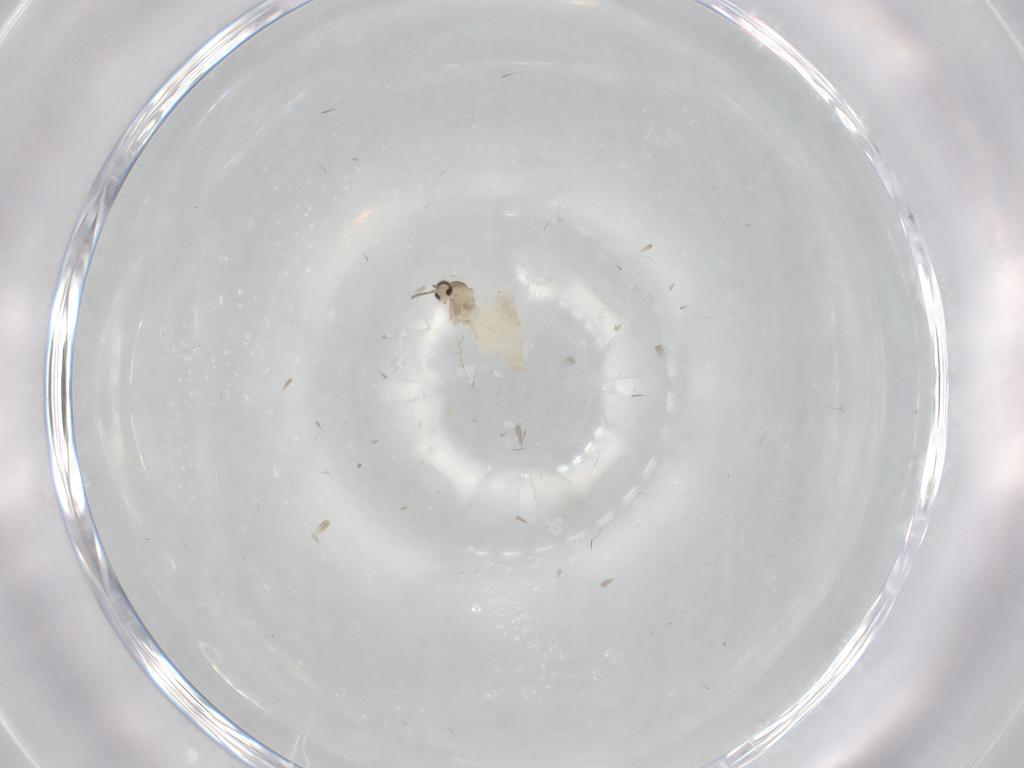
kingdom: Animalia
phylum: Arthropoda
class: Insecta
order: Diptera
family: Cecidomyiidae
